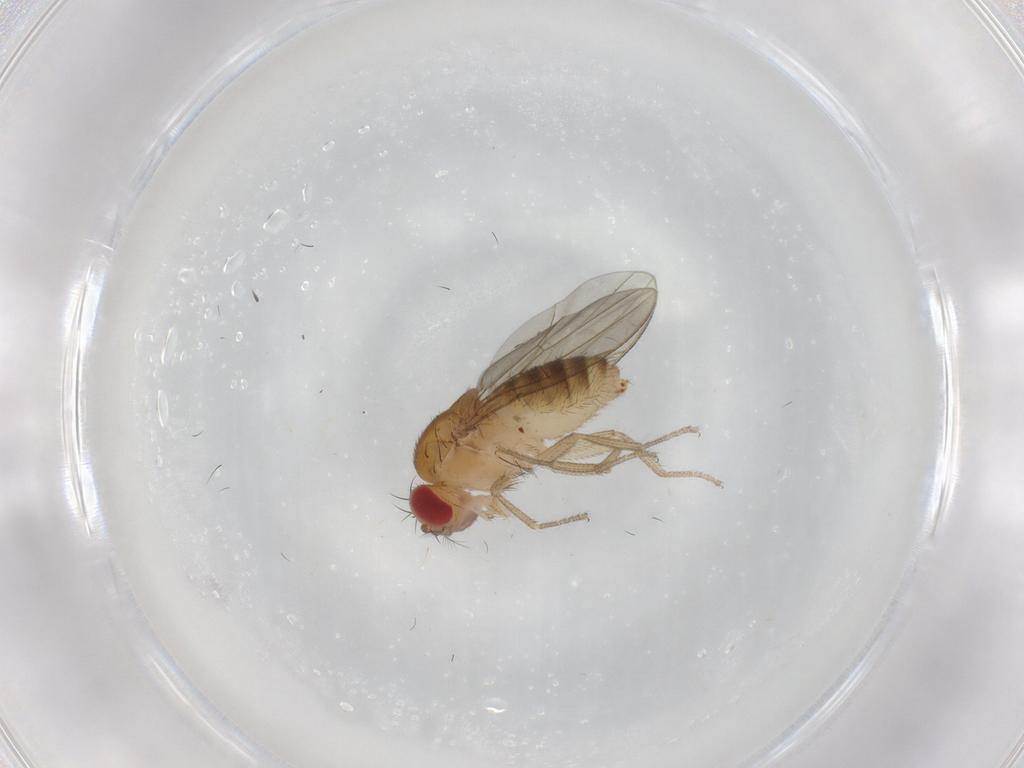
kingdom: Animalia
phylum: Arthropoda
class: Insecta
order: Diptera
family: Drosophilidae
